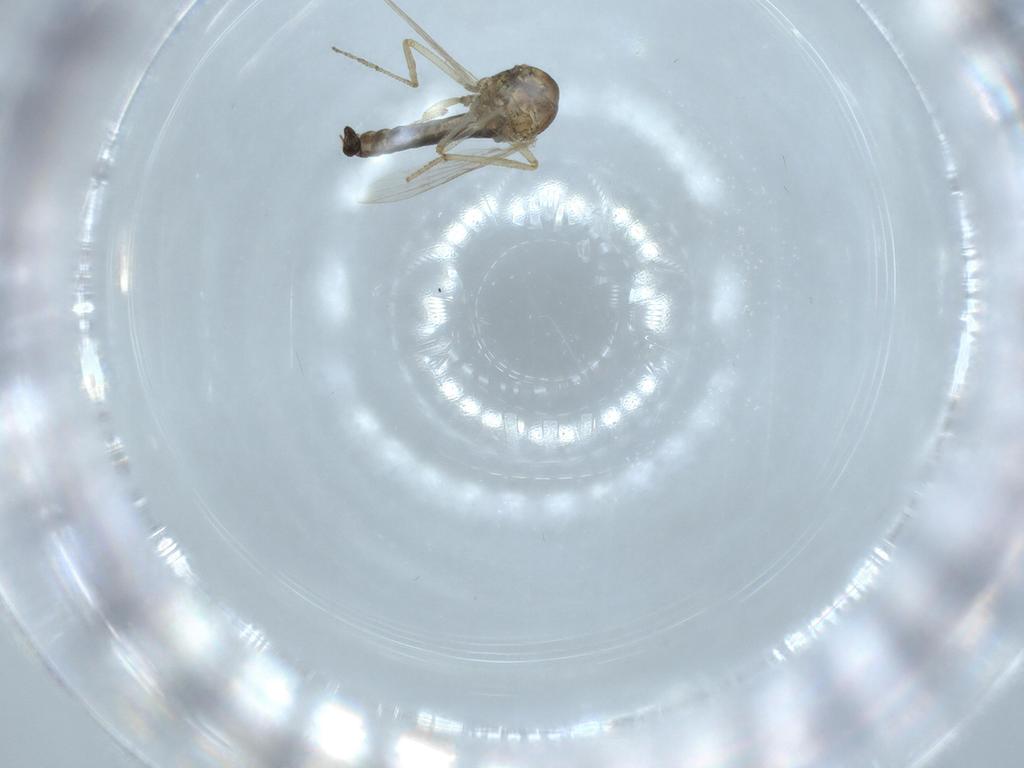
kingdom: Animalia
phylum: Arthropoda
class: Insecta
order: Diptera
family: Ceratopogonidae
